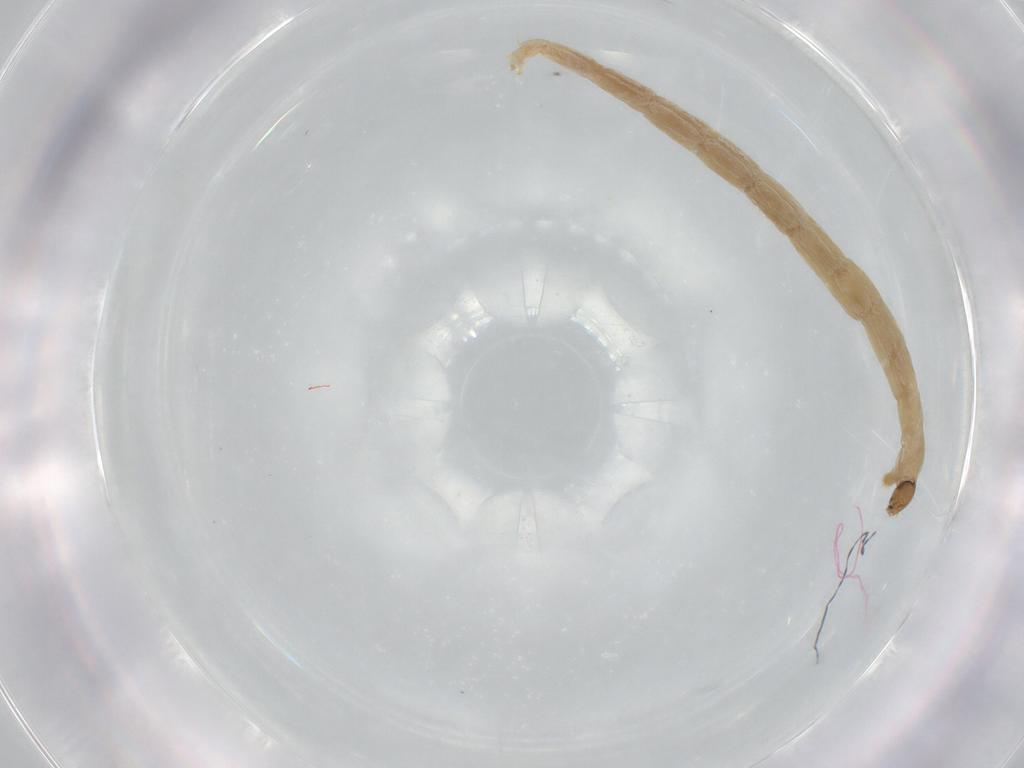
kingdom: Animalia
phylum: Arthropoda
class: Insecta
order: Diptera
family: Chironomidae
